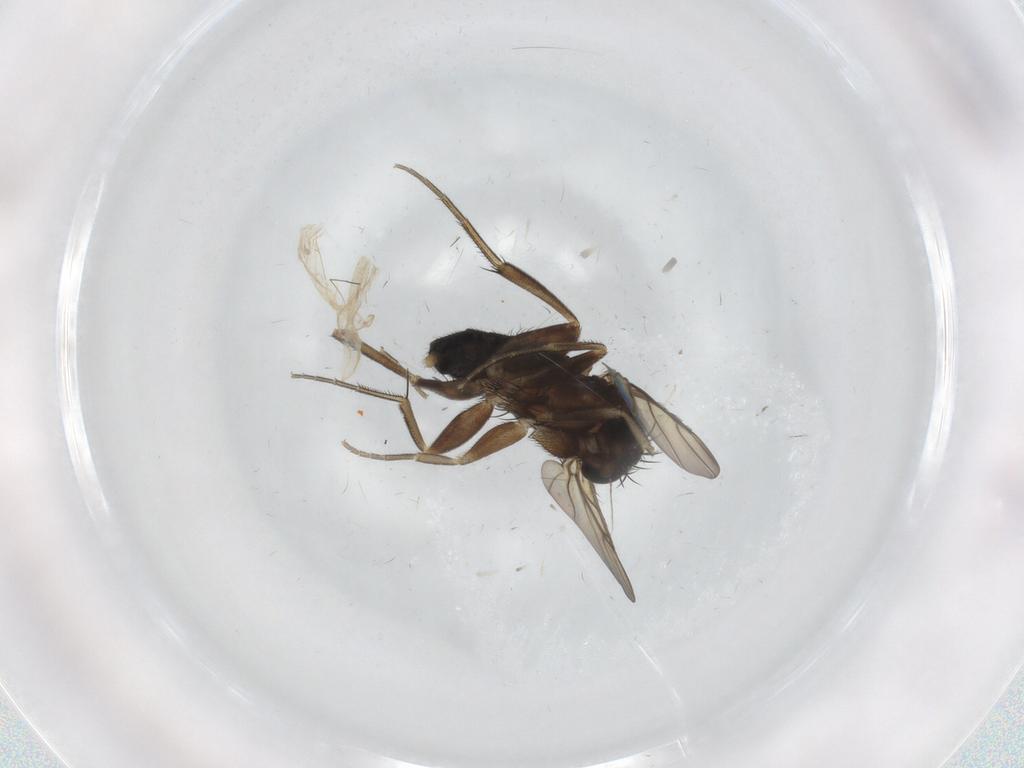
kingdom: Animalia
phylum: Arthropoda
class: Insecta
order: Diptera
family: Phoridae
